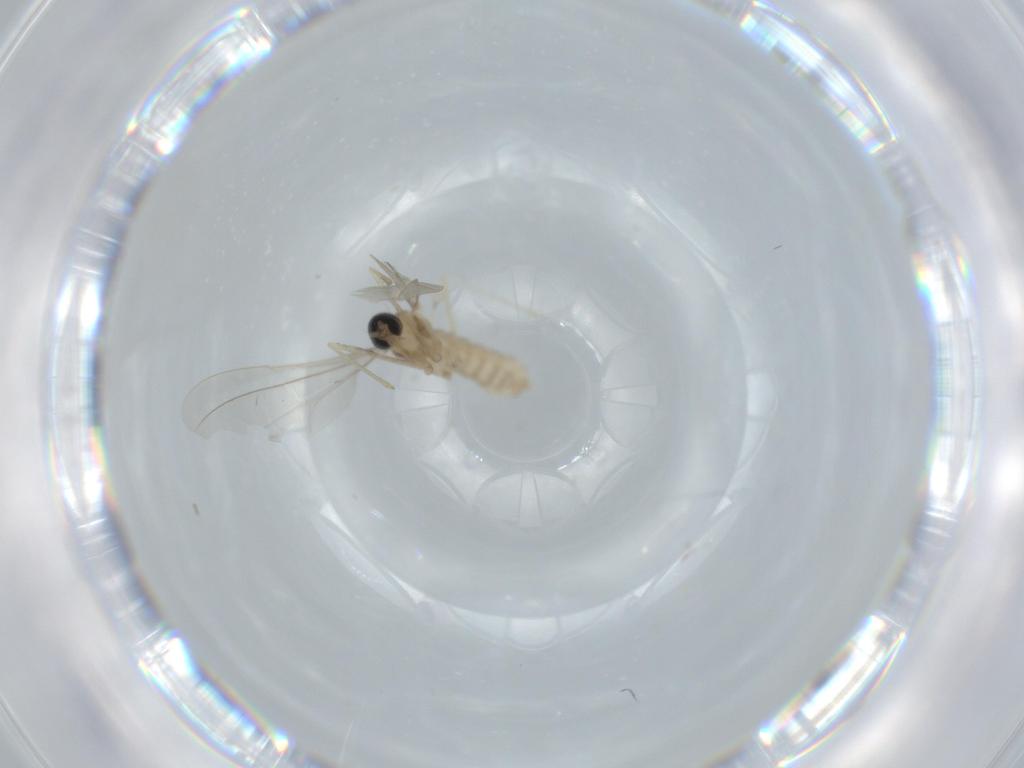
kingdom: Animalia
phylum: Arthropoda
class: Insecta
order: Diptera
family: Cecidomyiidae
